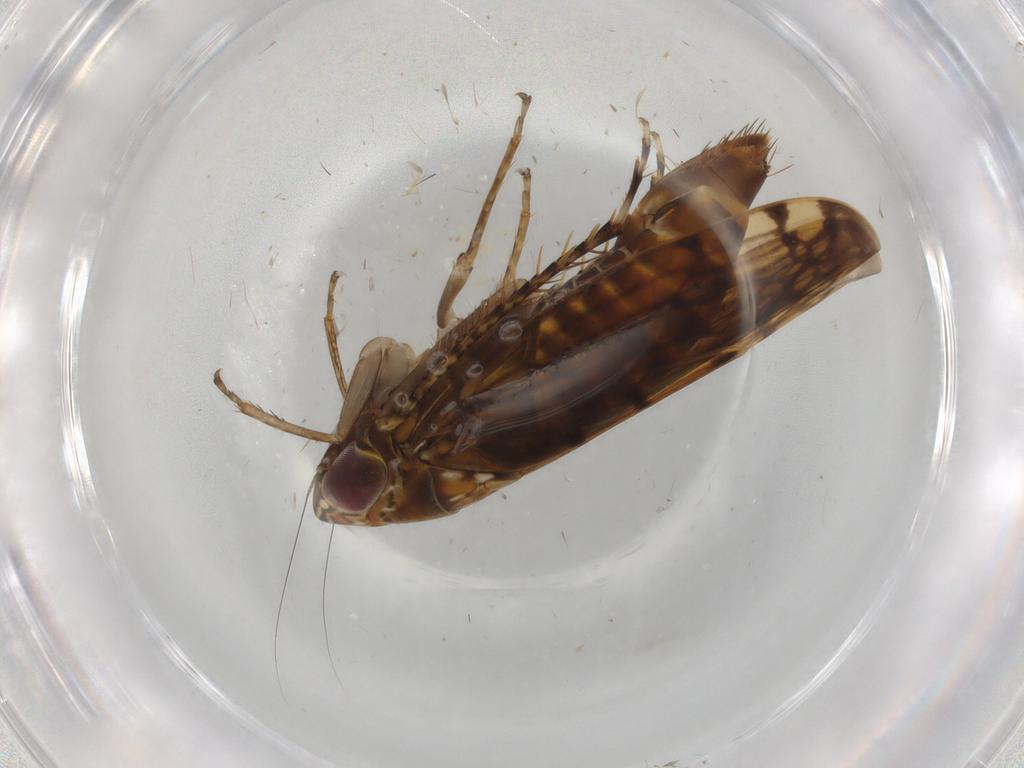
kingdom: Animalia
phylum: Arthropoda
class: Insecta
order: Hemiptera
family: Cicadellidae
